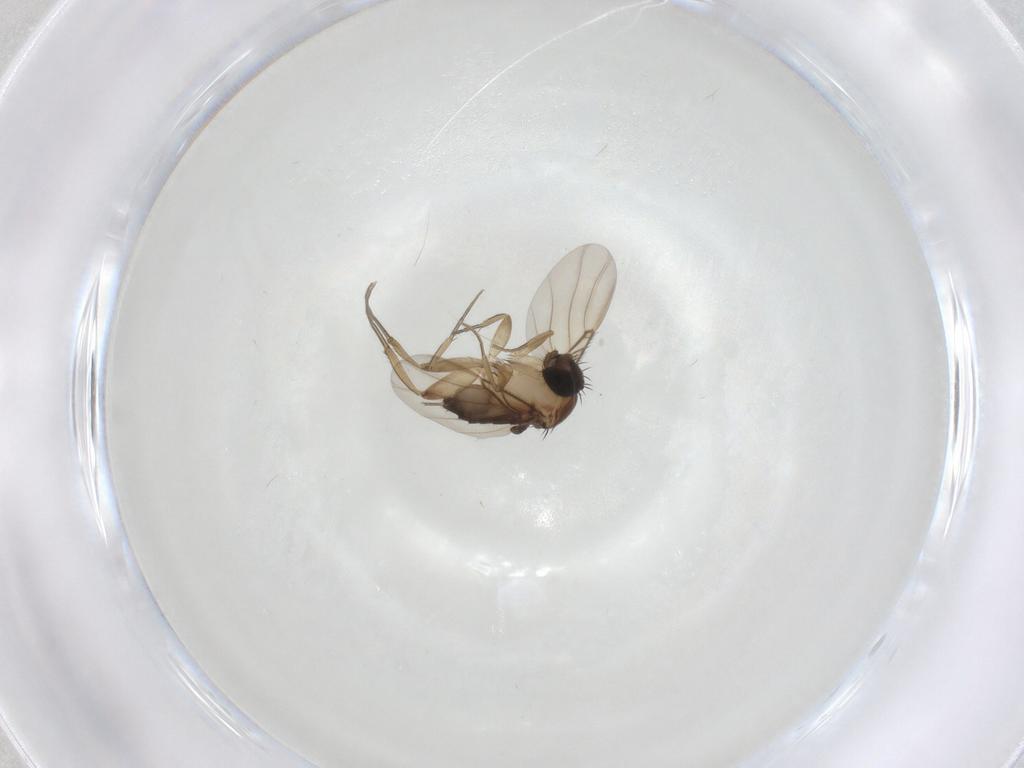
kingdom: Animalia
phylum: Arthropoda
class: Insecta
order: Diptera
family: Phoridae
